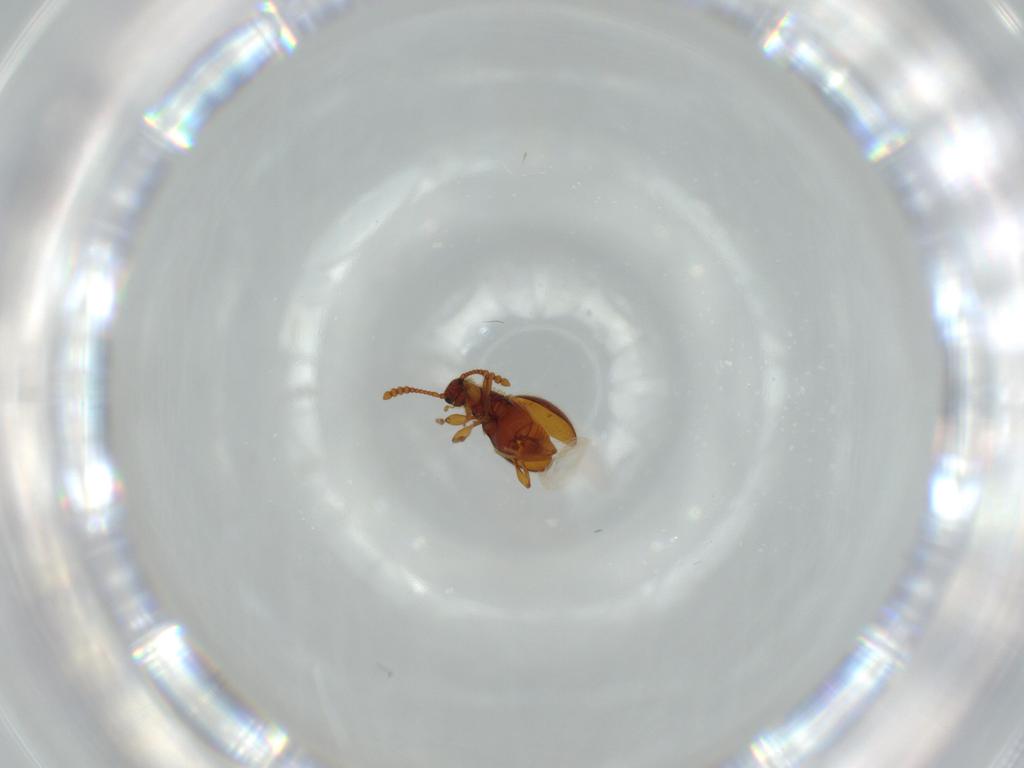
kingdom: Animalia
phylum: Arthropoda
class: Insecta
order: Coleoptera
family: Staphylinidae
